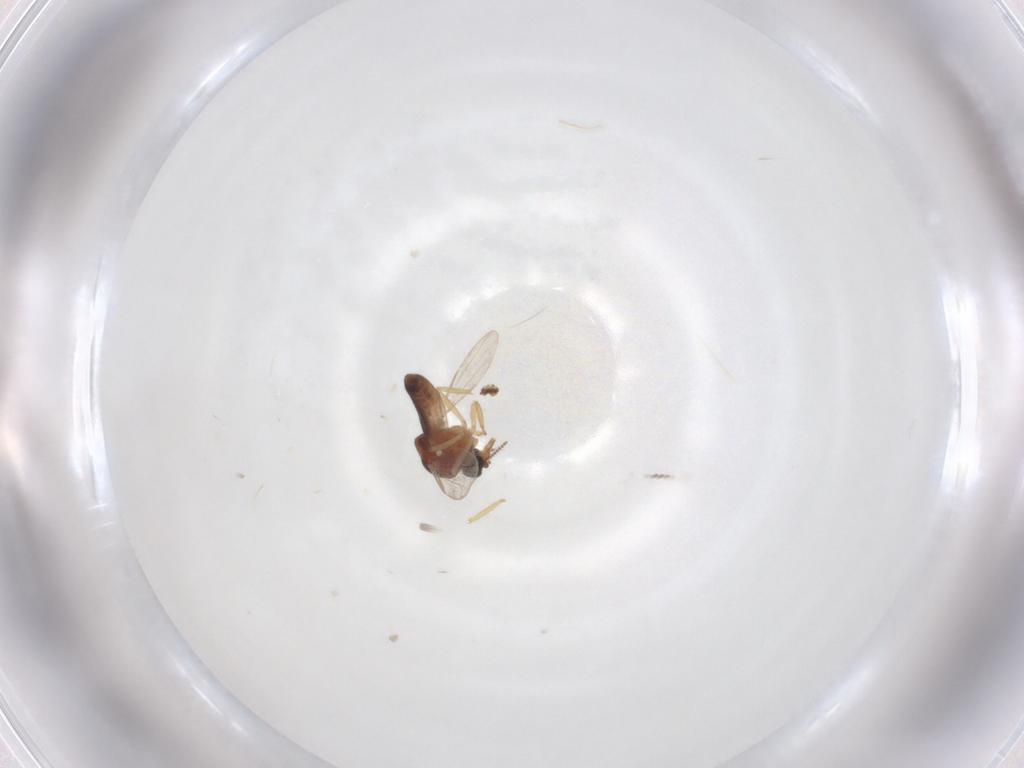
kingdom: Animalia
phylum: Arthropoda
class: Insecta
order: Diptera
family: Ceratopogonidae
